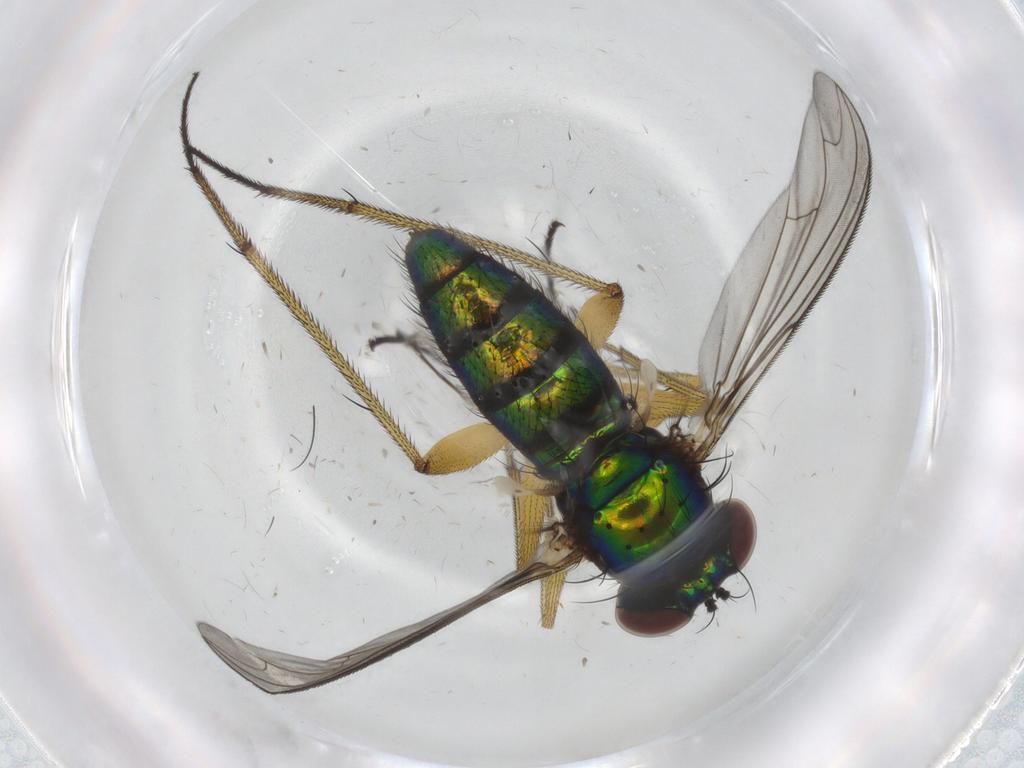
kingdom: Animalia
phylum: Arthropoda
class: Insecta
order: Diptera
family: Dolichopodidae
